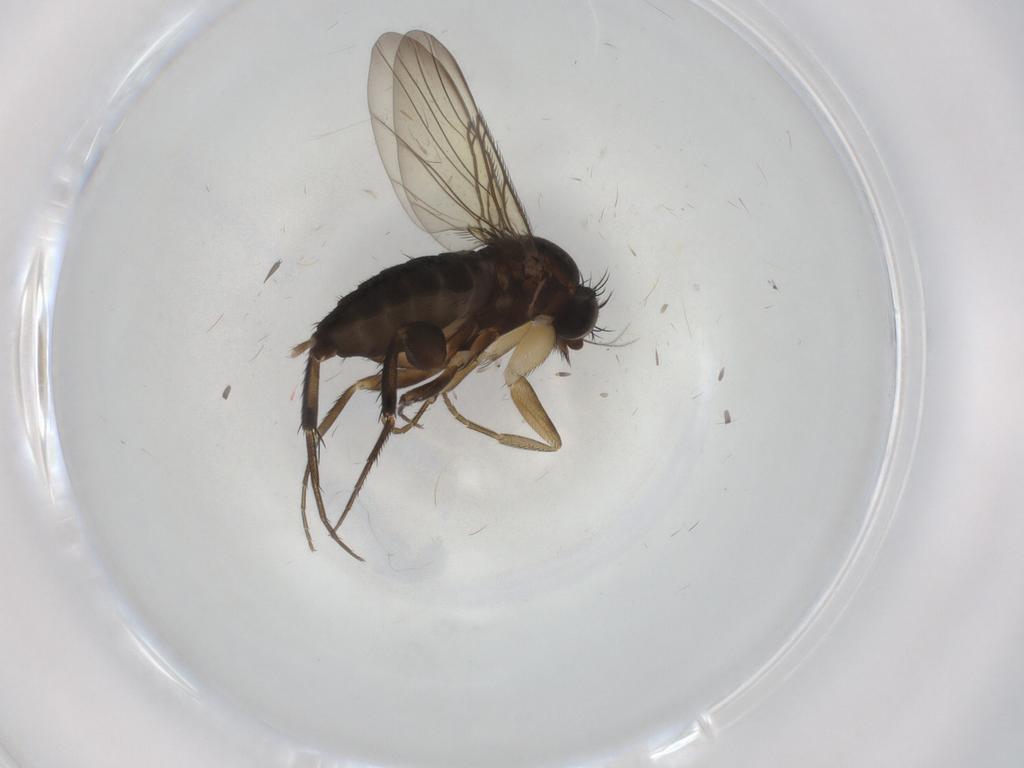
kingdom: Animalia
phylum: Arthropoda
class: Insecta
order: Diptera
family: Phoridae
